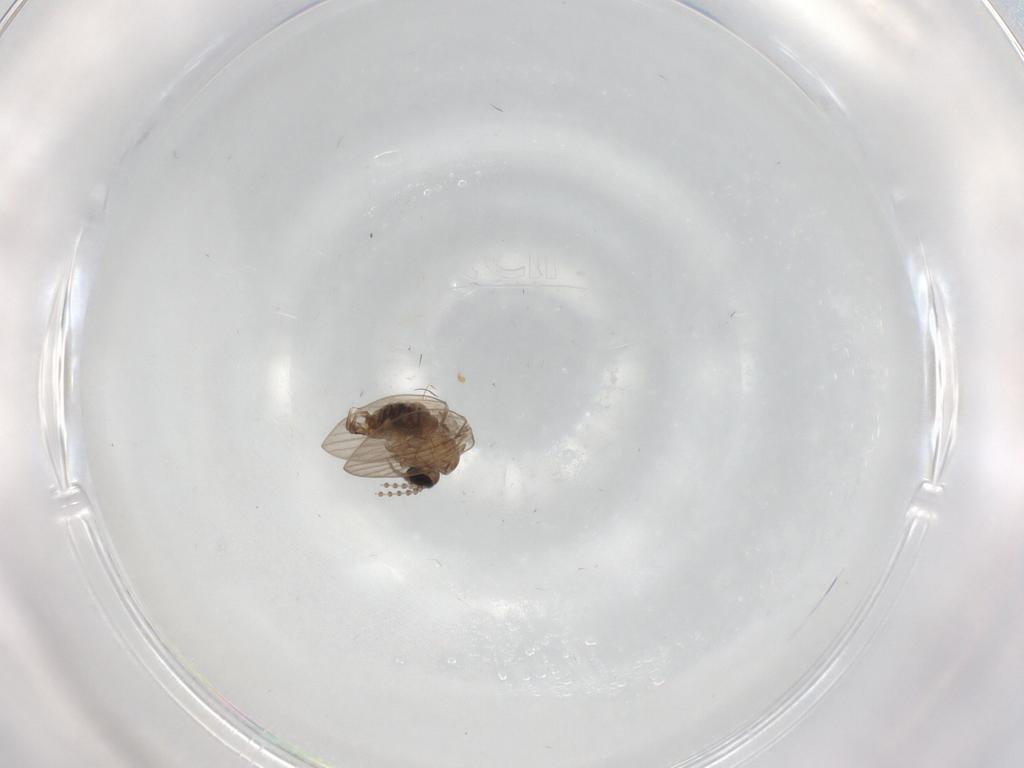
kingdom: Animalia
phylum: Arthropoda
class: Insecta
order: Diptera
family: Psychodidae
